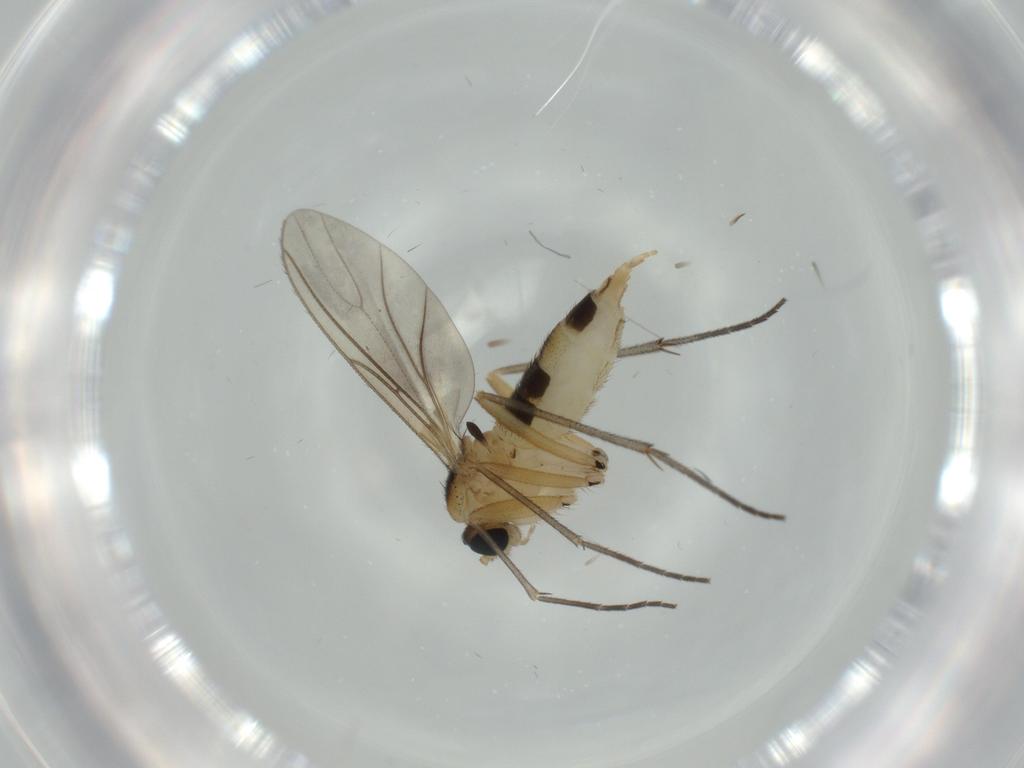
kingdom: Animalia
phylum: Arthropoda
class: Insecta
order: Diptera
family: Sciaridae
